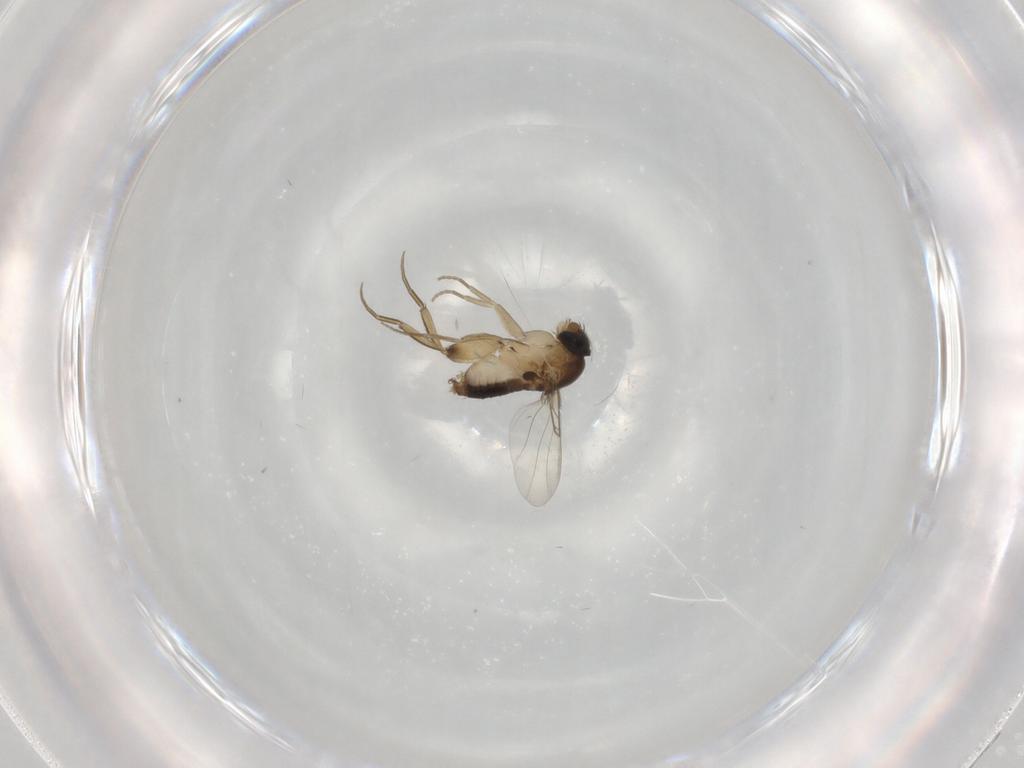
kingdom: Animalia
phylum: Arthropoda
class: Insecta
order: Diptera
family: Phoridae
